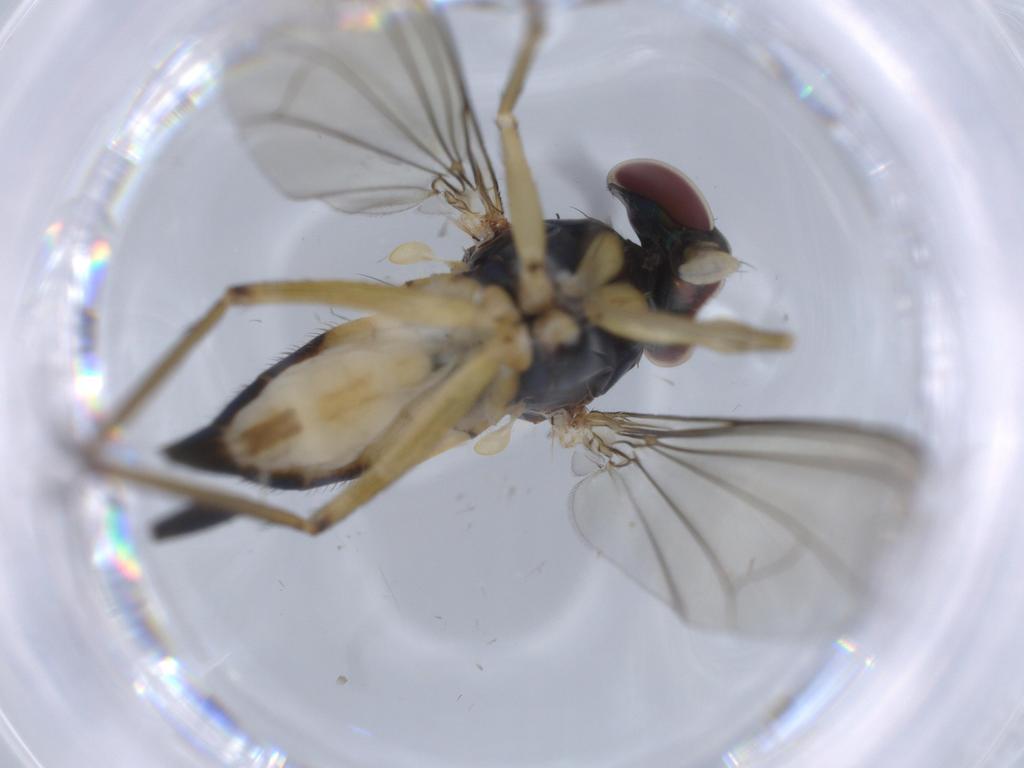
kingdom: Animalia
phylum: Arthropoda
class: Insecta
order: Diptera
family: Dolichopodidae
